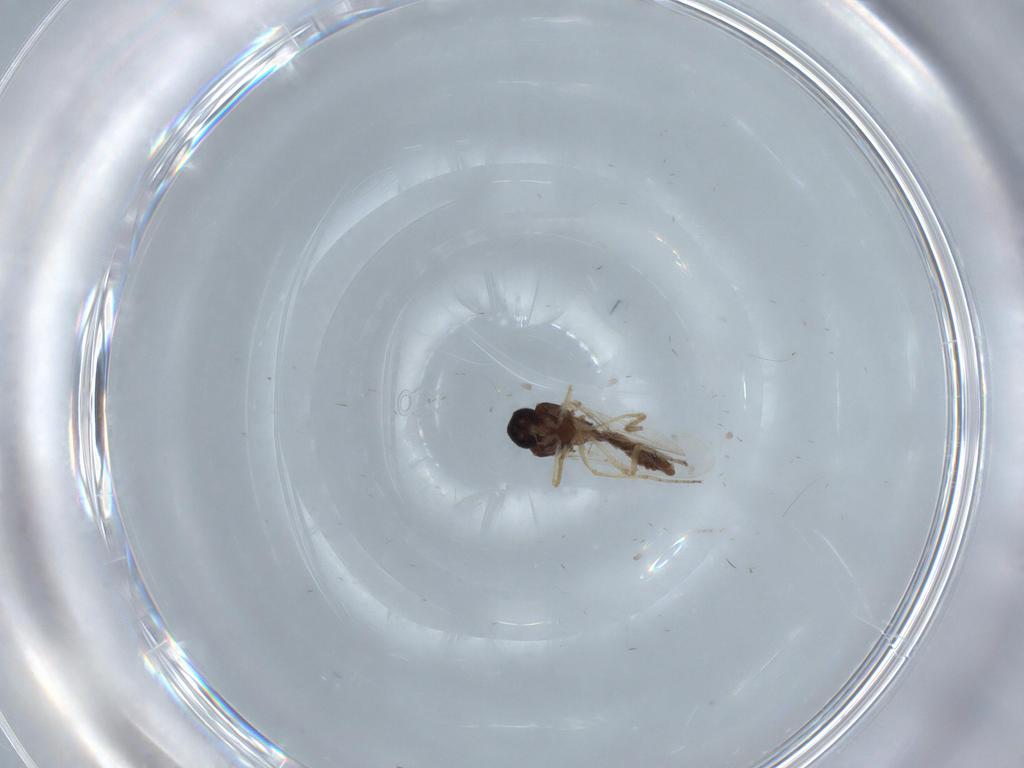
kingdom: Animalia
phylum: Arthropoda
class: Insecta
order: Diptera
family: Ceratopogonidae
